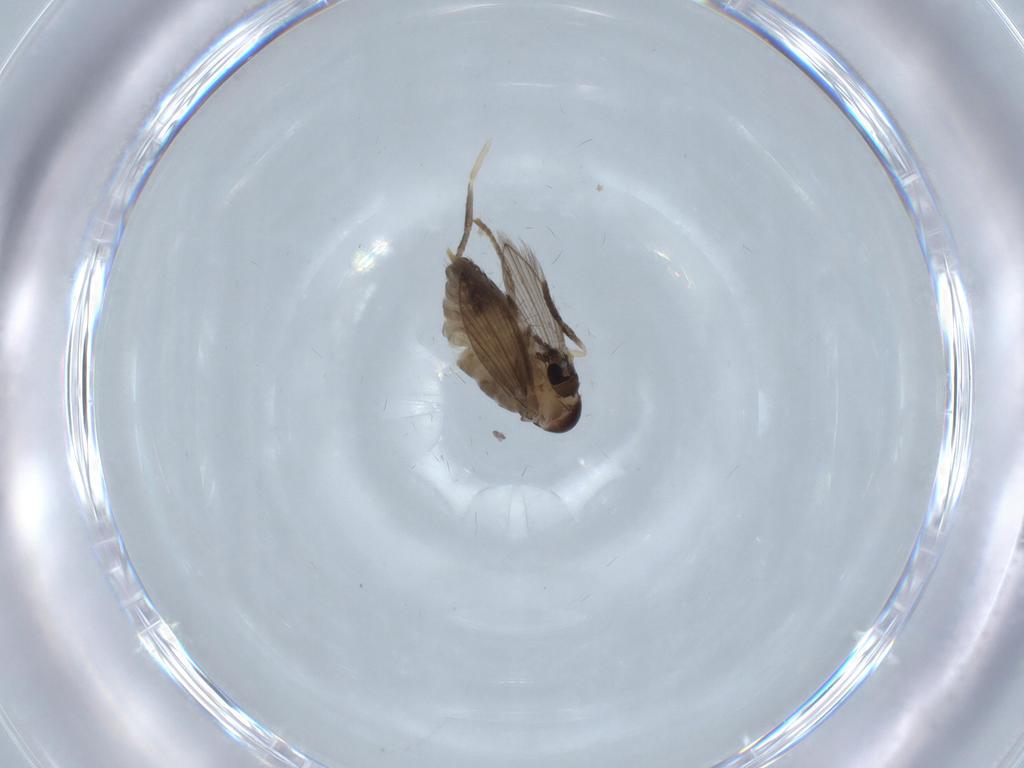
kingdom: Animalia
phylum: Arthropoda
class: Insecta
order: Diptera
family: Psychodidae
